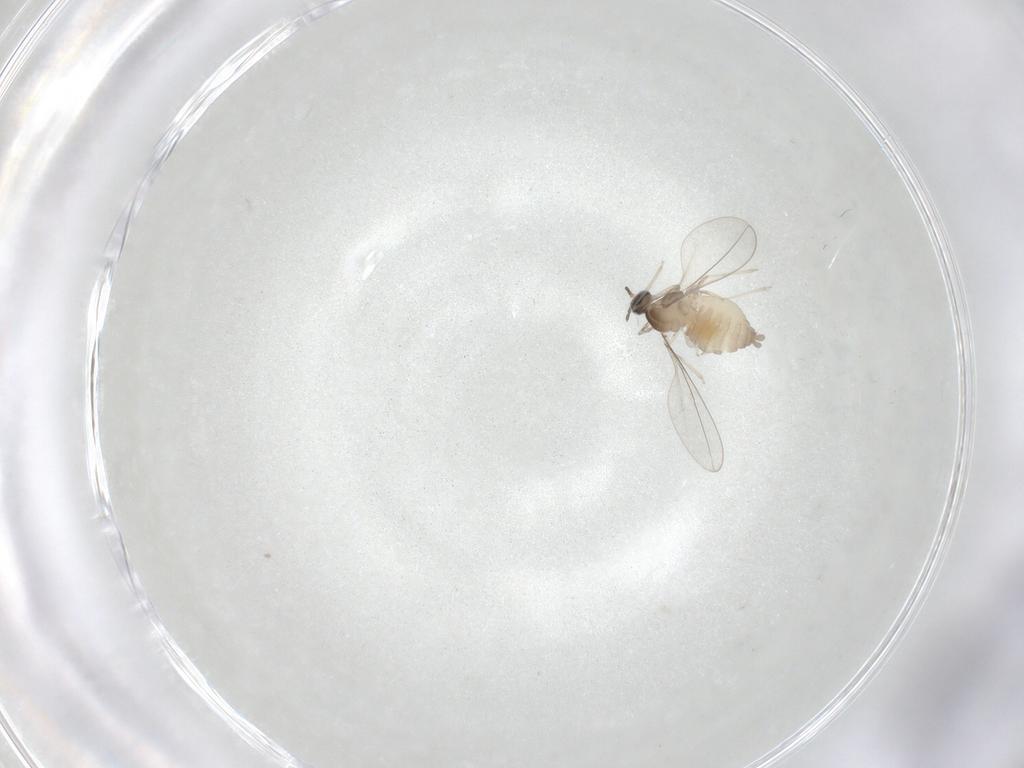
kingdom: Animalia
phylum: Arthropoda
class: Insecta
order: Diptera
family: Cecidomyiidae
